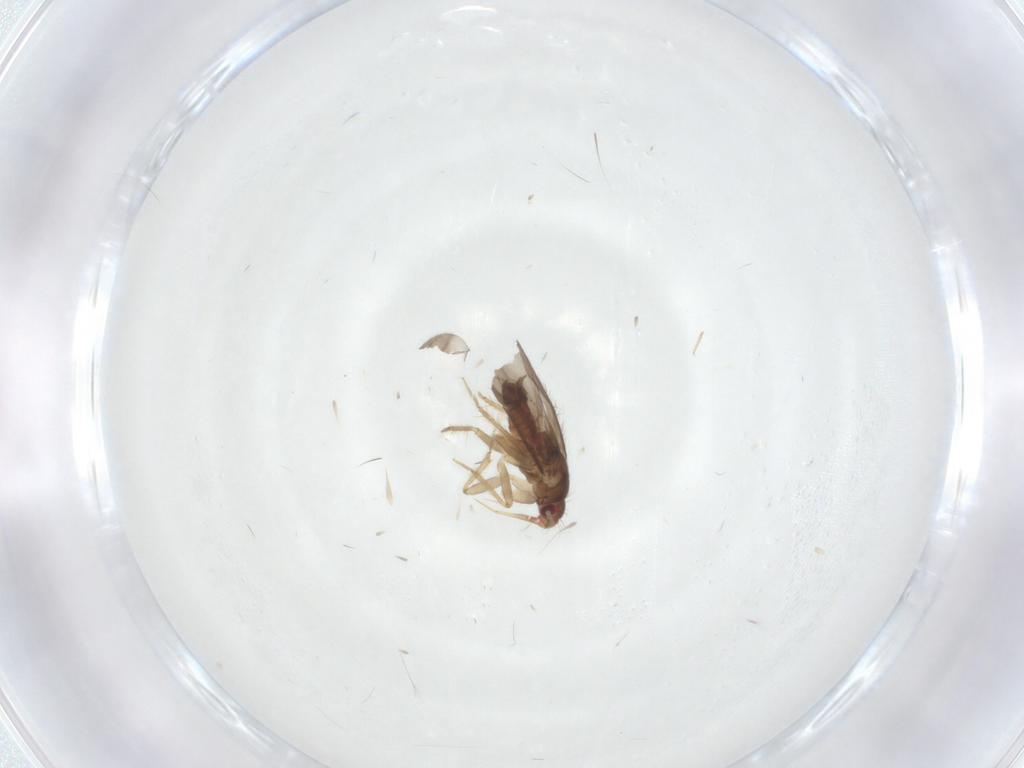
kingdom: Animalia
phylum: Arthropoda
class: Insecta
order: Hemiptera
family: Ceratocombidae
